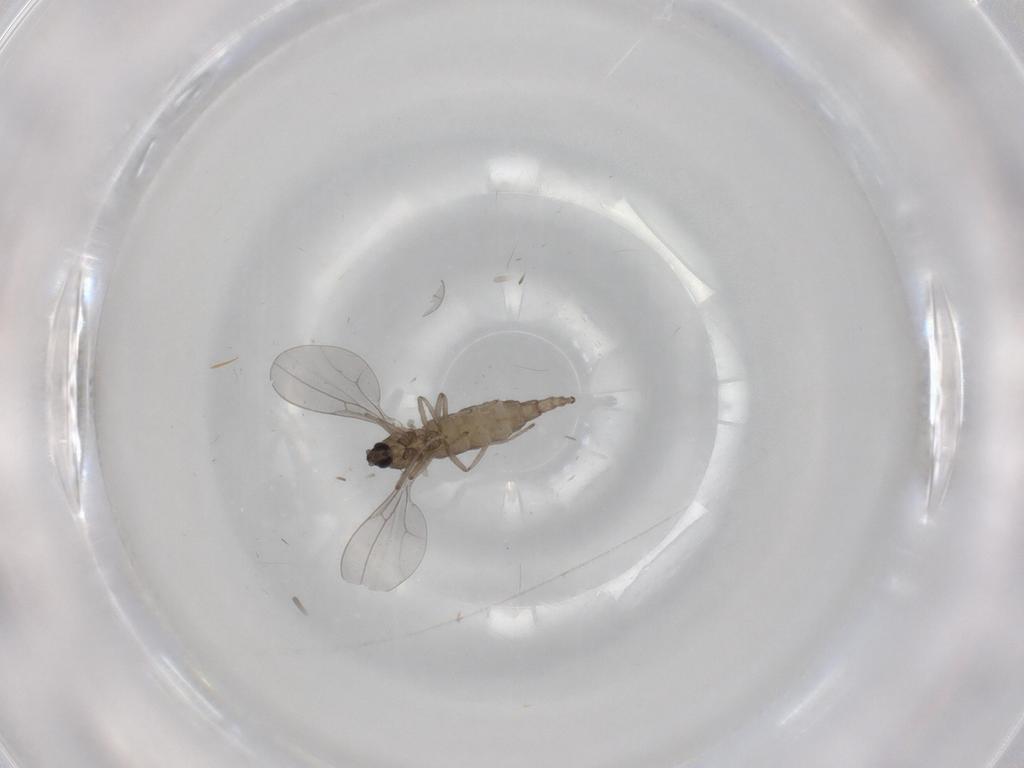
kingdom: Animalia
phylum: Arthropoda
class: Insecta
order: Diptera
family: Cecidomyiidae
